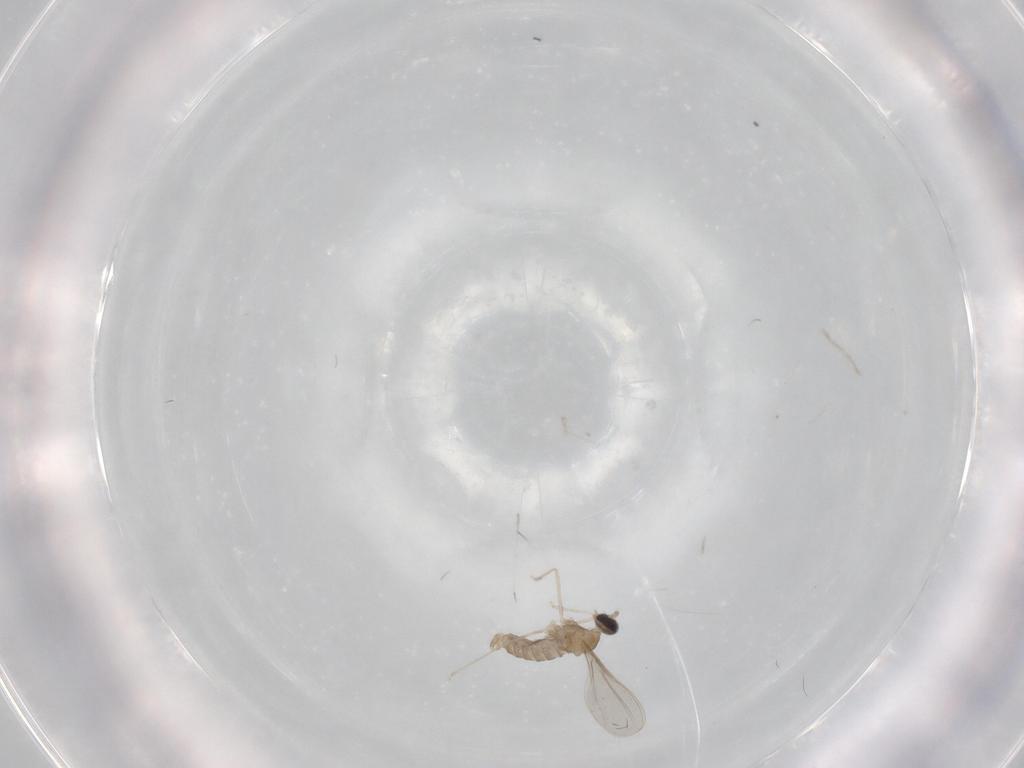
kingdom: Animalia
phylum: Arthropoda
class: Insecta
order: Diptera
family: Cecidomyiidae
